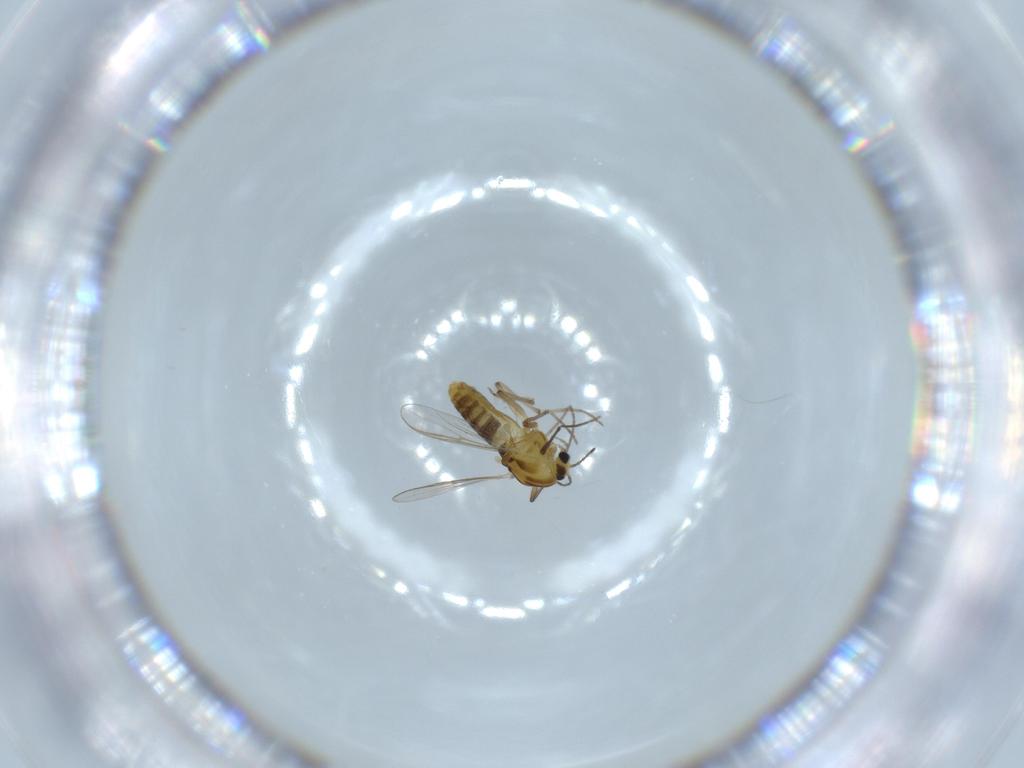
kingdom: Animalia
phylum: Arthropoda
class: Insecta
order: Diptera
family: Chironomidae
